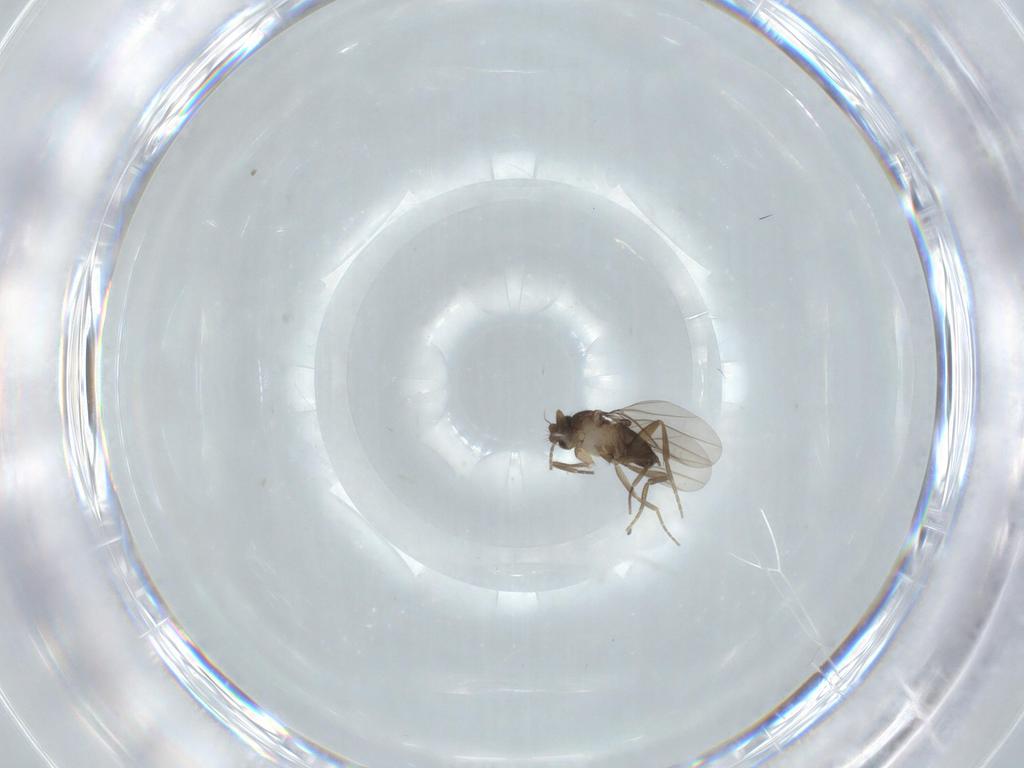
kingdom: Animalia
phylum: Arthropoda
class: Insecta
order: Diptera
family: Phoridae
